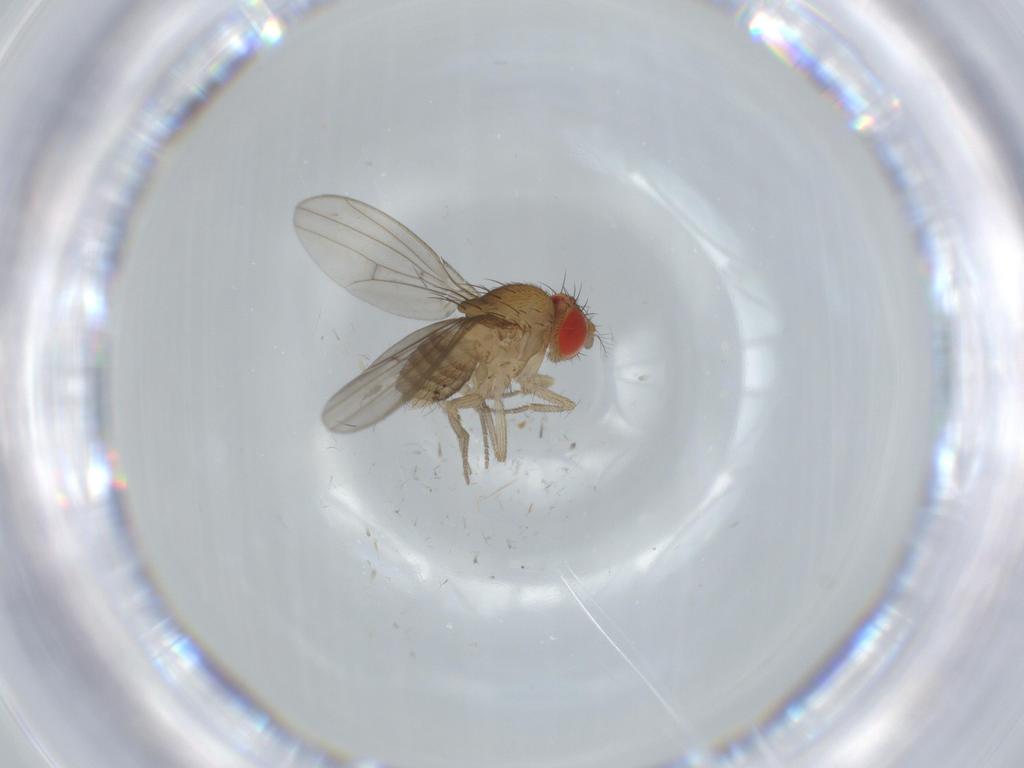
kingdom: Animalia
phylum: Arthropoda
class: Insecta
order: Diptera
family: Drosophilidae
